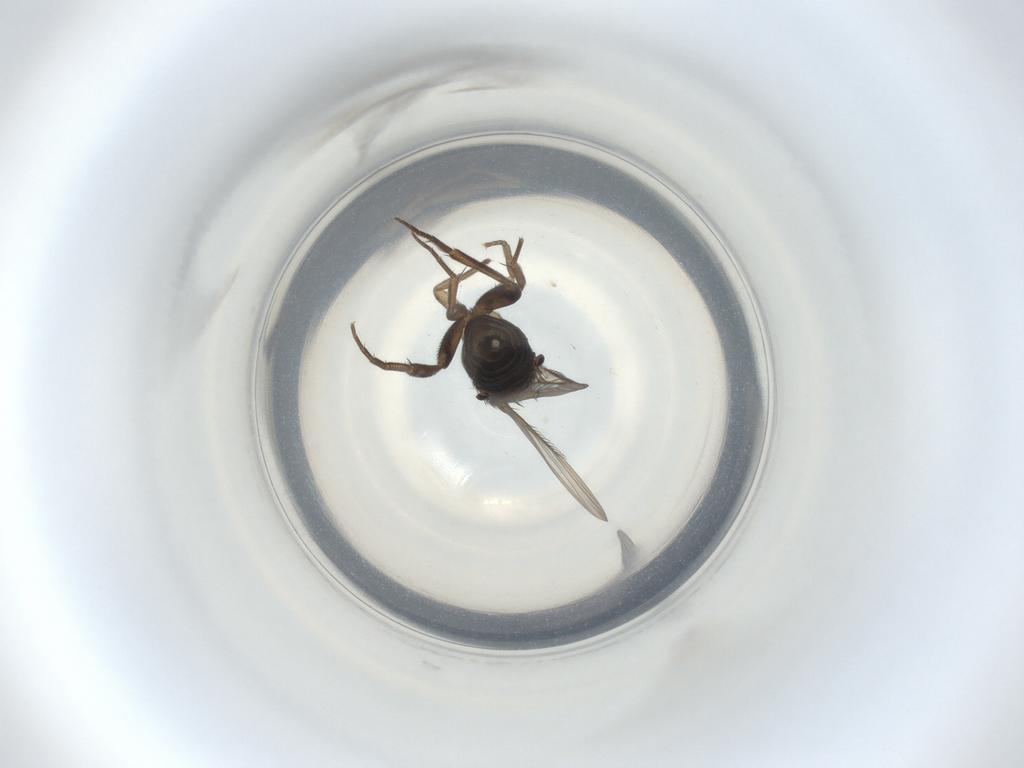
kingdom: Animalia
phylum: Arthropoda
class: Insecta
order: Diptera
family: Phoridae
